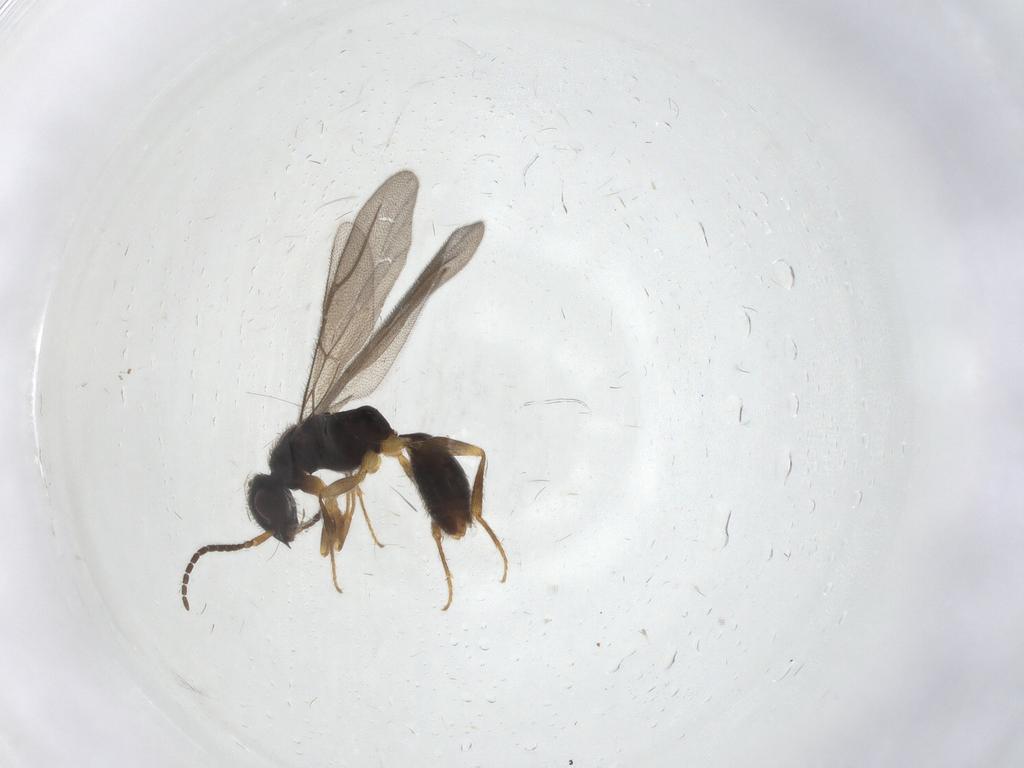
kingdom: Animalia
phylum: Arthropoda
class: Insecta
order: Hymenoptera
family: Bethylidae
